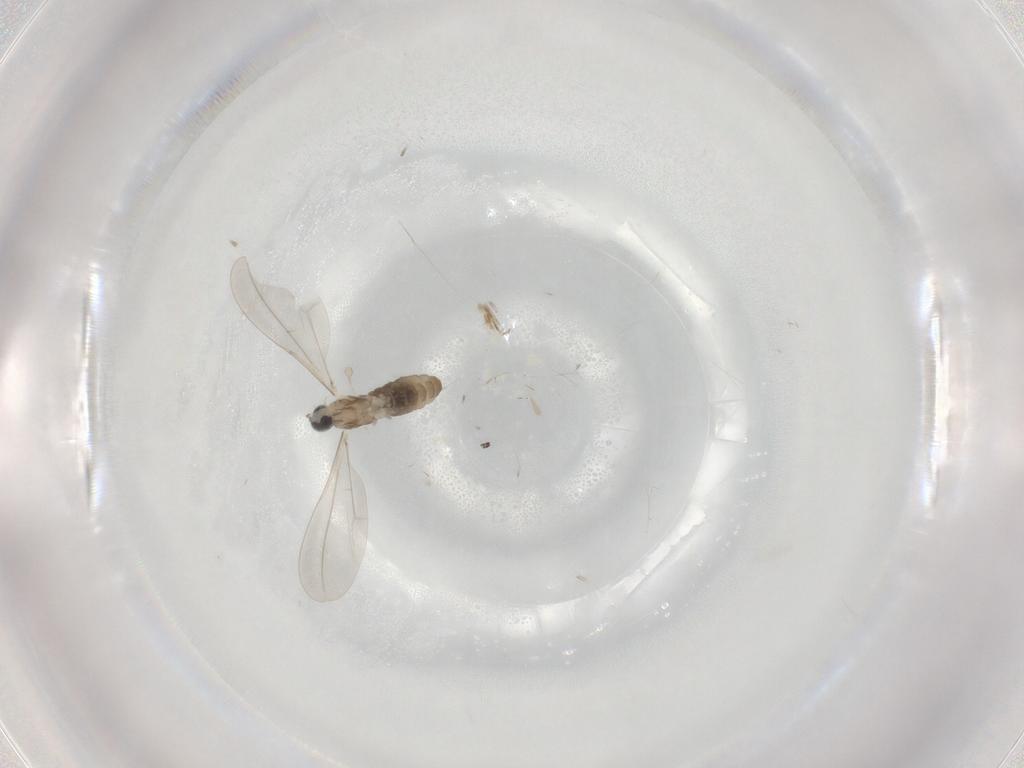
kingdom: Animalia
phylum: Arthropoda
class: Insecta
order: Diptera
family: Cecidomyiidae
